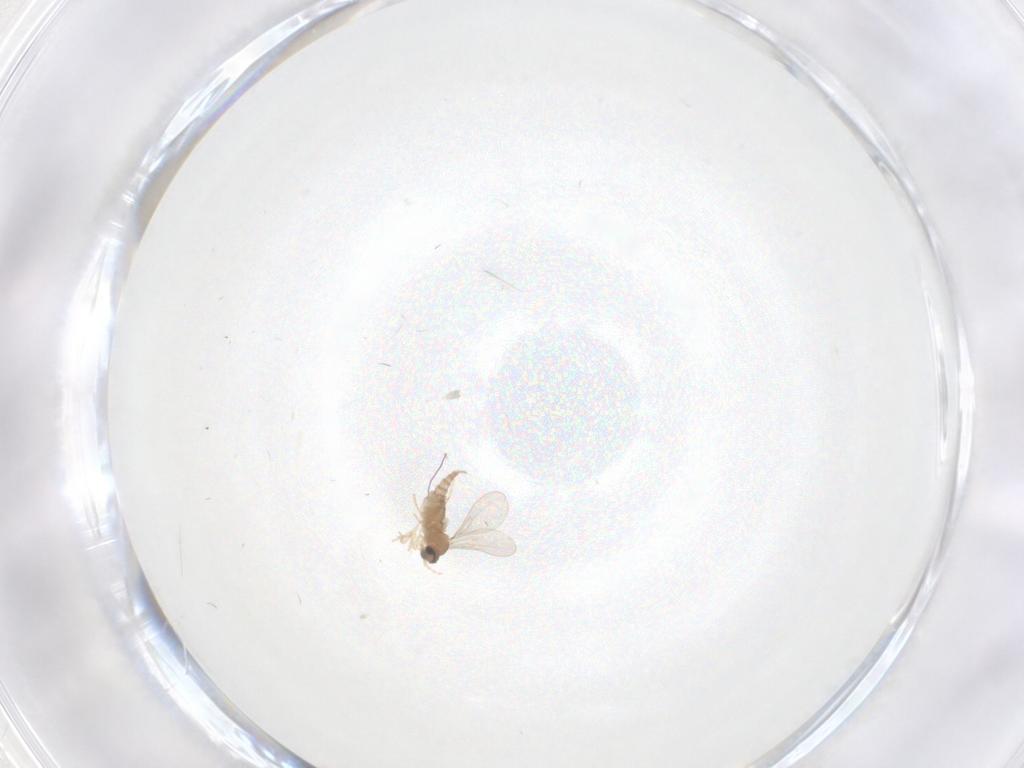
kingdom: Animalia
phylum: Arthropoda
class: Insecta
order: Diptera
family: Cecidomyiidae
